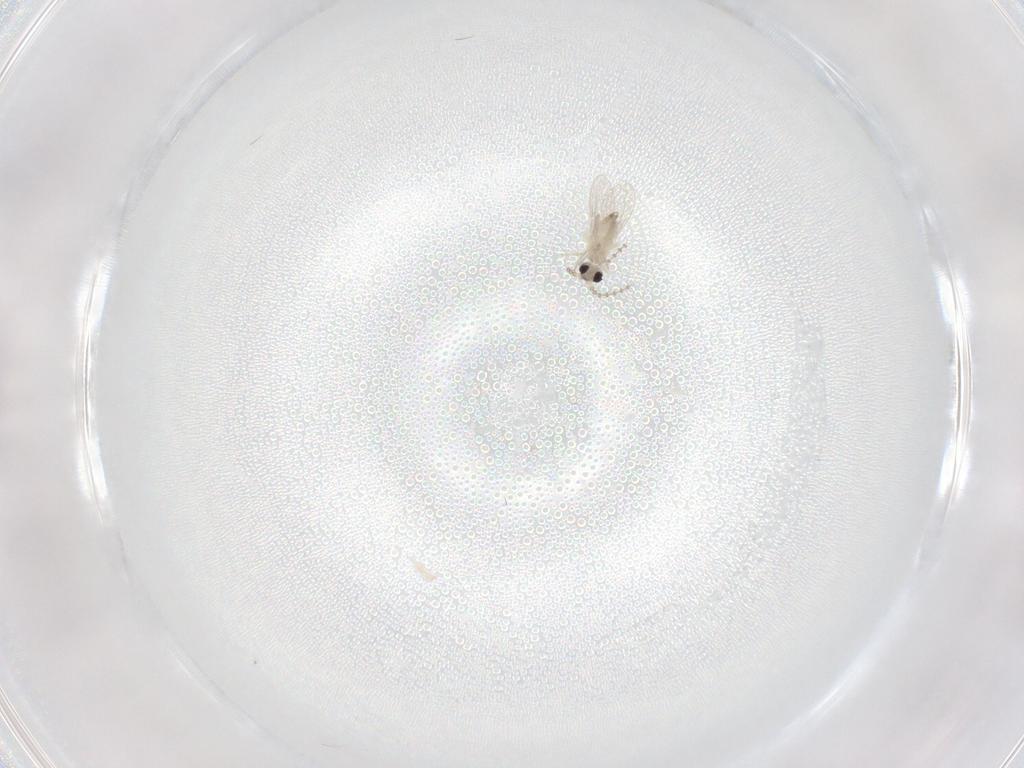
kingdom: Animalia
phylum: Arthropoda
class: Insecta
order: Diptera
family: Cecidomyiidae
